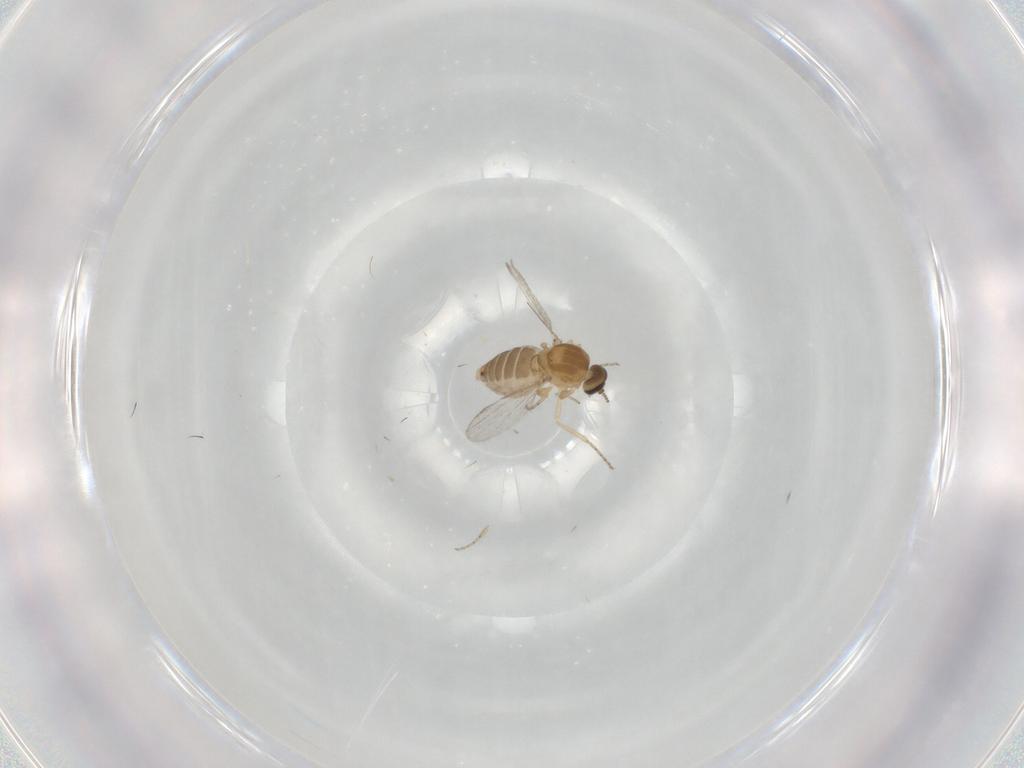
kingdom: Animalia
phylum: Arthropoda
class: Insecta
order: Diptera
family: Ceratopogonidae
